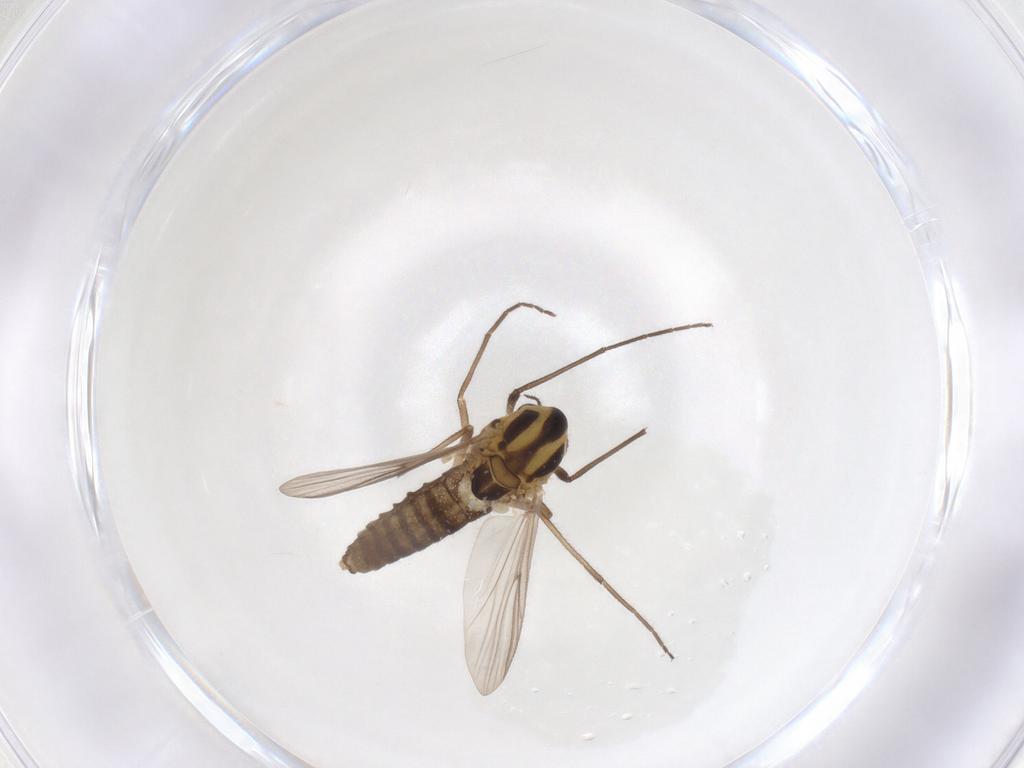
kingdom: Animalia
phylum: Arthropoda
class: Insecta
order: Diptera
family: Chironomidae
